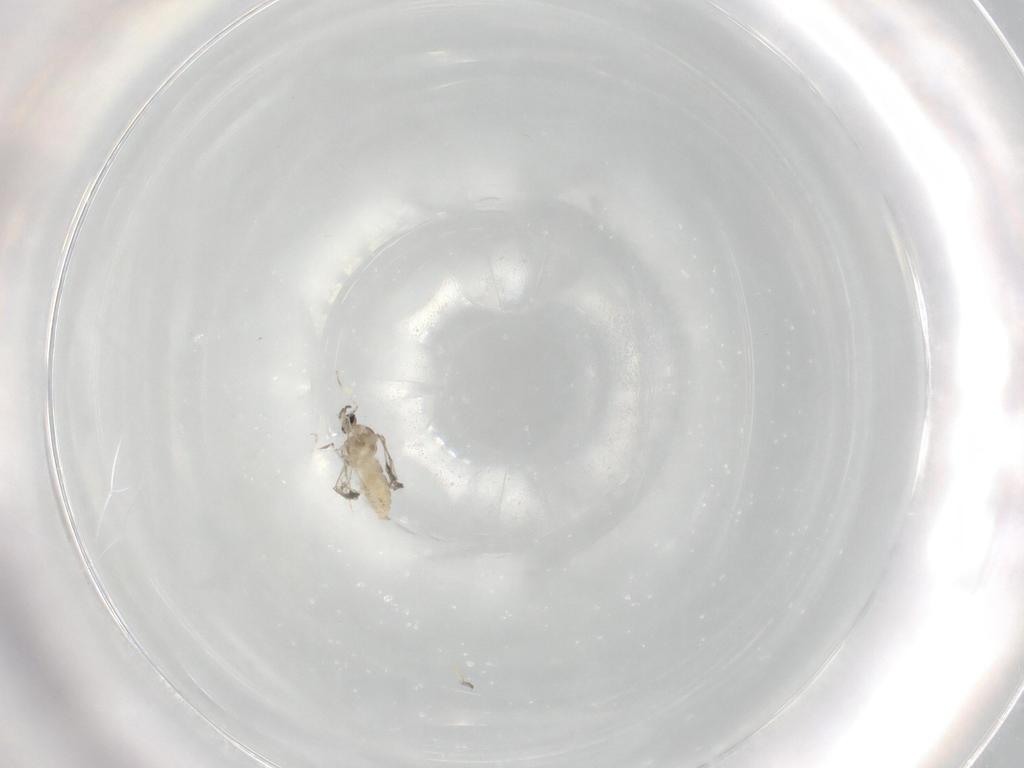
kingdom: Animalia
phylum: Arthropoda
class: Insecta
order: Diptera
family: Cecidomyiidae
